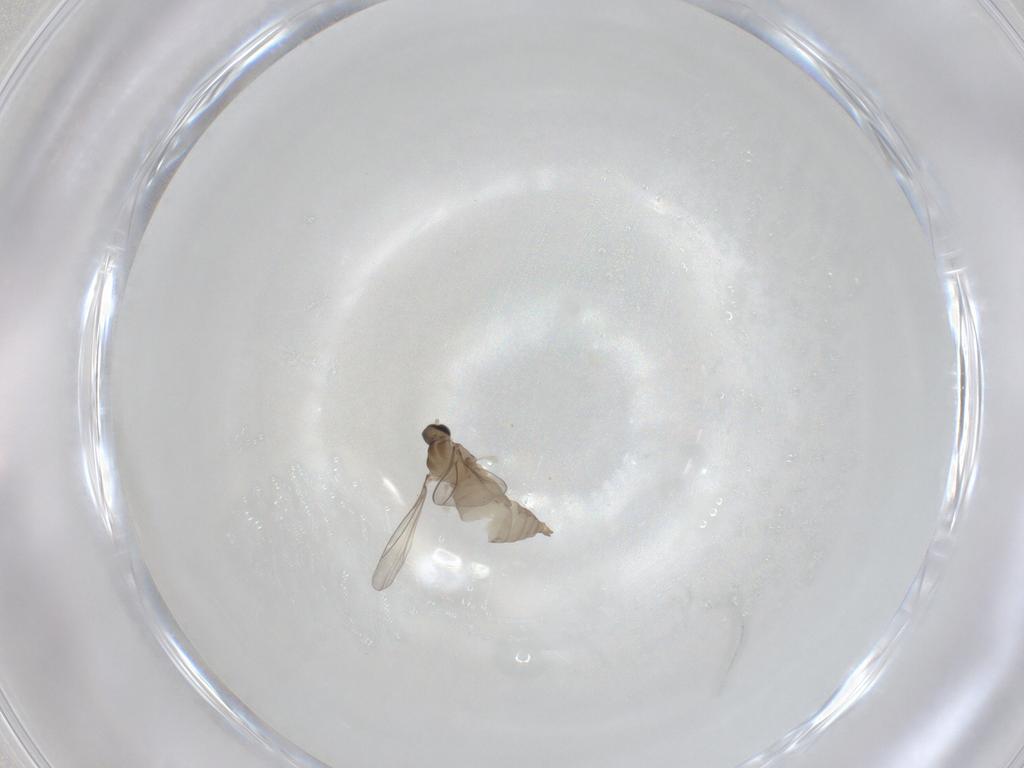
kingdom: Animalia
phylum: Arthropoda
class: Insecta
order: Diptera
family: Cecidomyiidae
